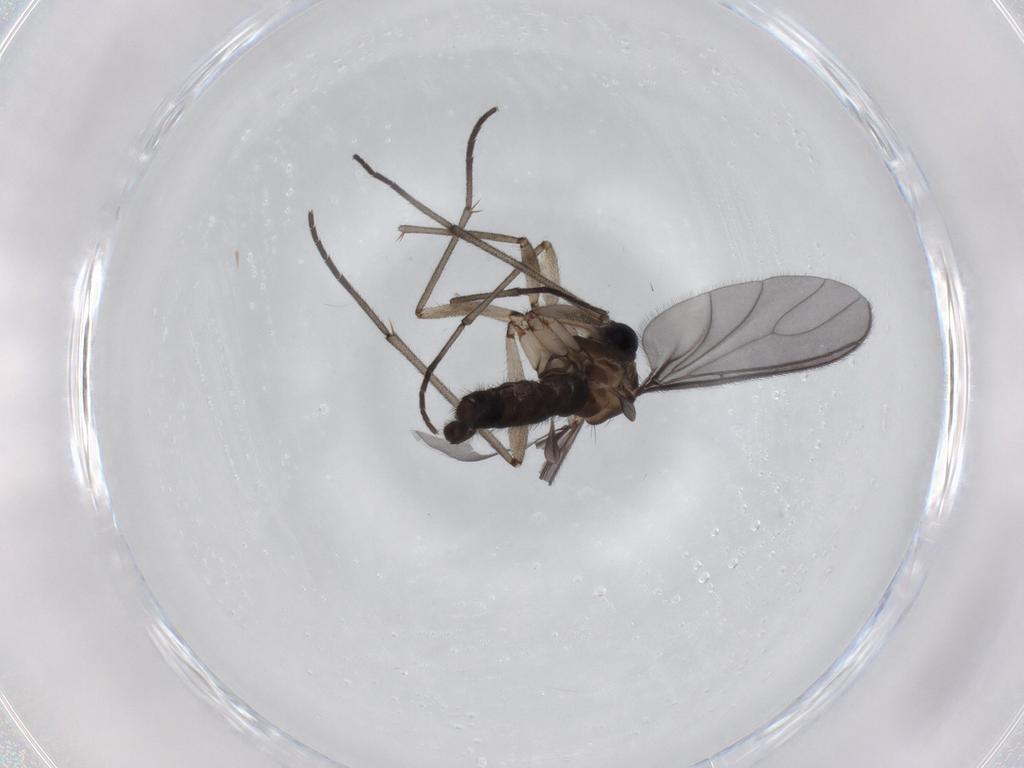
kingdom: Animalia
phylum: Arthropoda
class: Insecta
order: Diptera
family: Sciaridae
